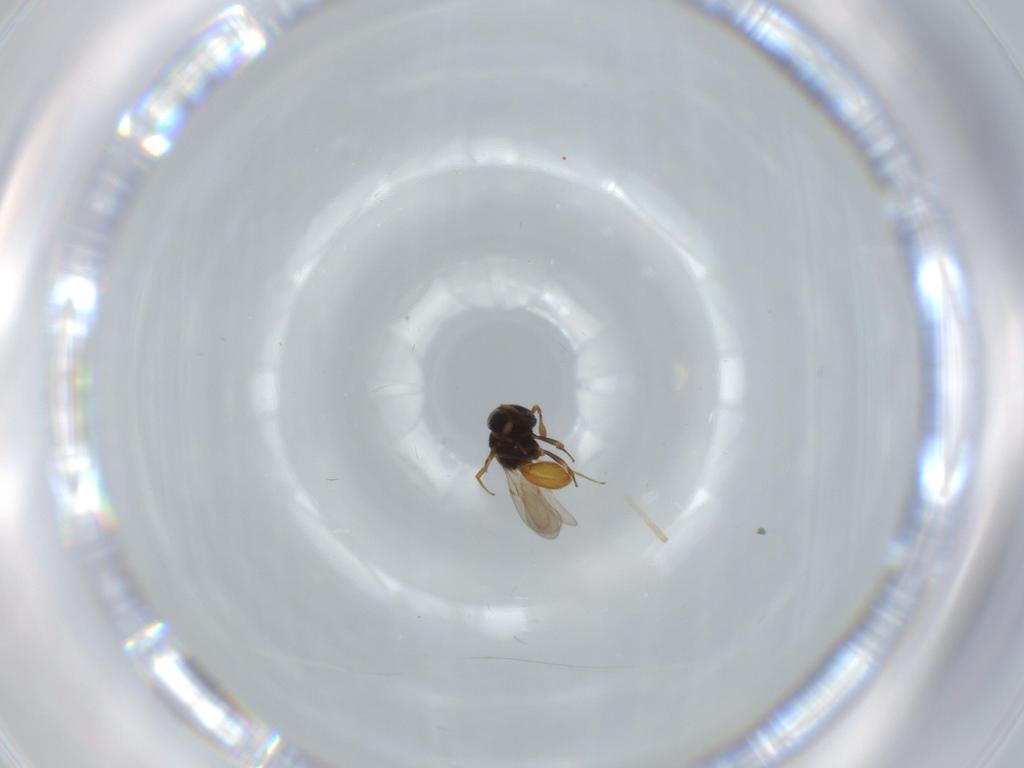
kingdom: Animalia
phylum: Arthropoda
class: Insecta
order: Hymenoptera
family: Scelionidae
